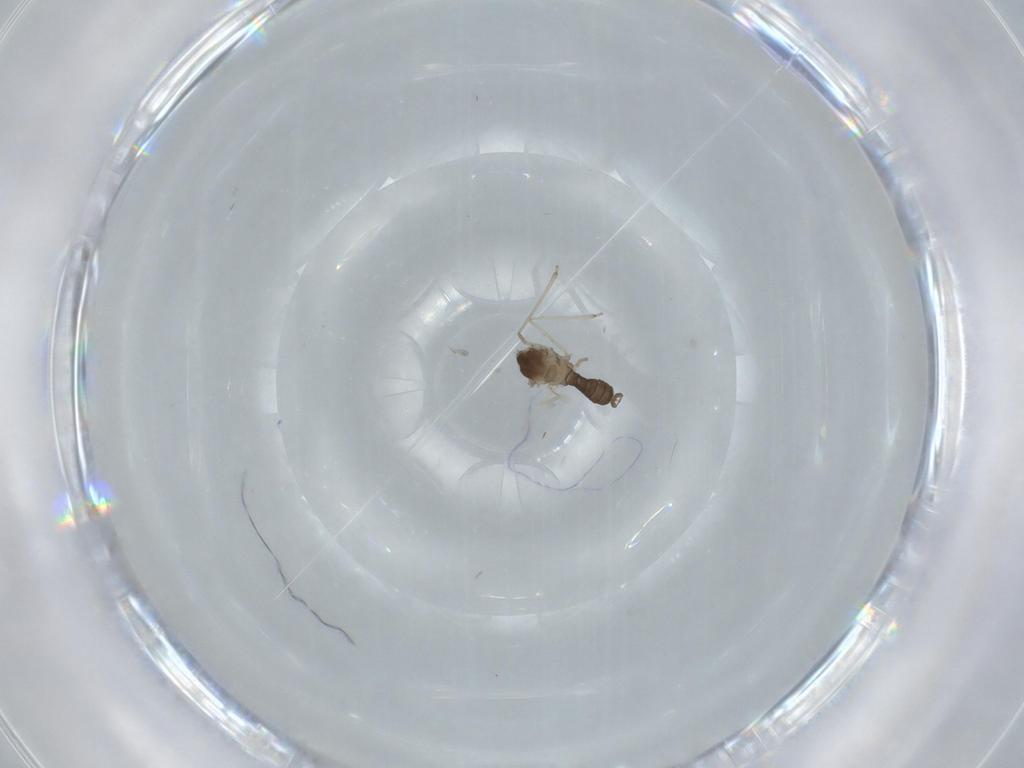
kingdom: Animalia
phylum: Arthropoda
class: Insecta
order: Diptera
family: Cecidomyiidae
